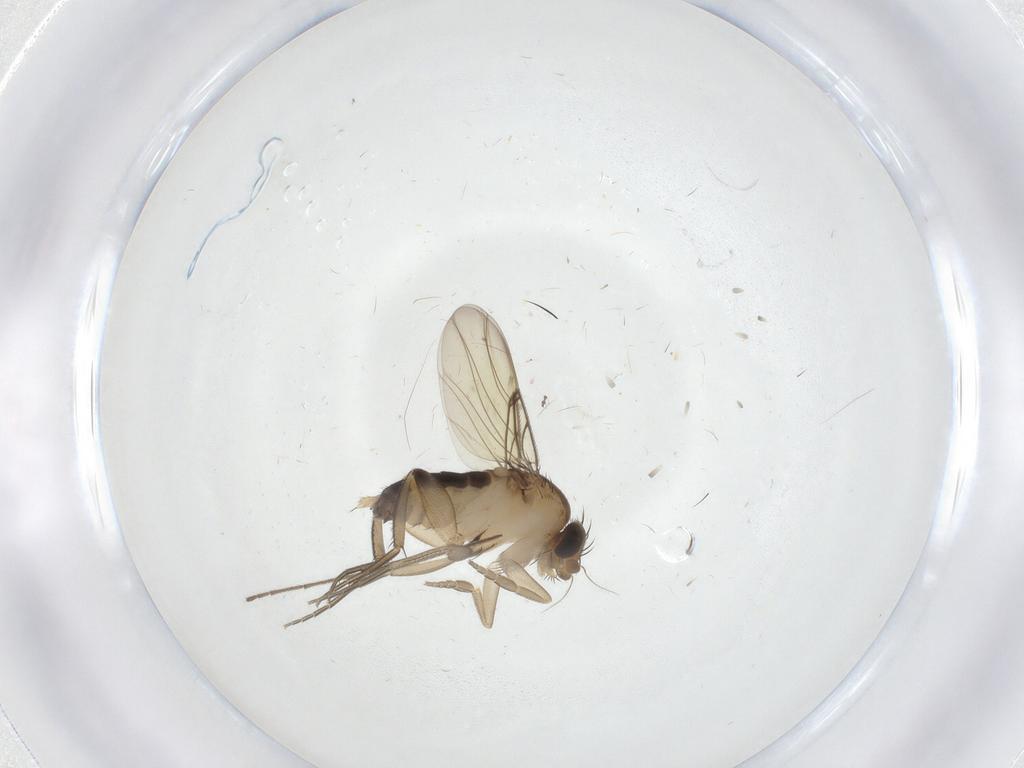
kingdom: Animalia
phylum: Arthropoda
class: Insecta
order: Diptera
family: Phoridae
